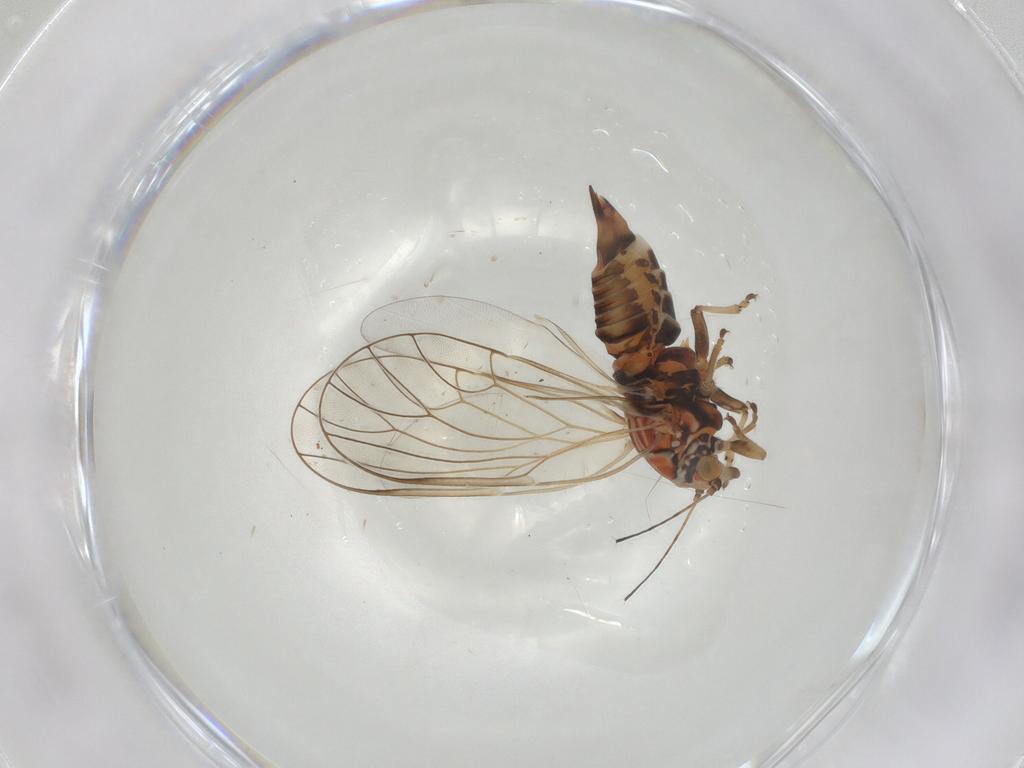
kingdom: Animalia
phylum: Arthropoda
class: Insecta
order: Hemiptera
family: Psyllidae
